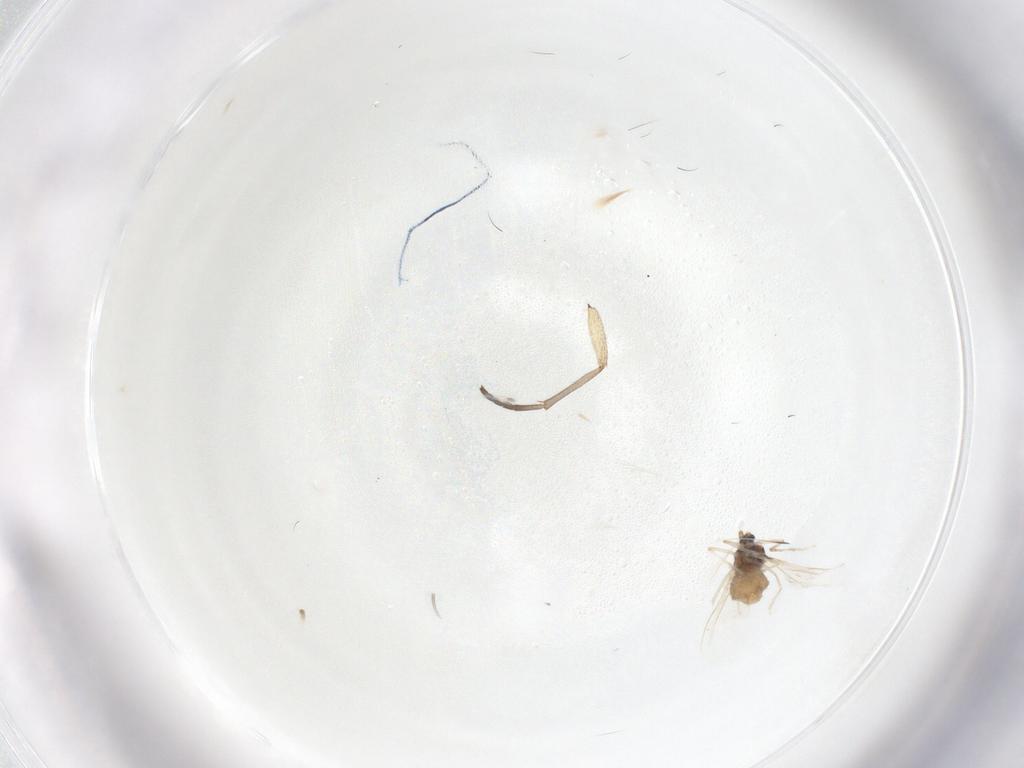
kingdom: Animalia
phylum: Arthropoda
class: Insecta
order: Diptera
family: Cecidomyiidae
